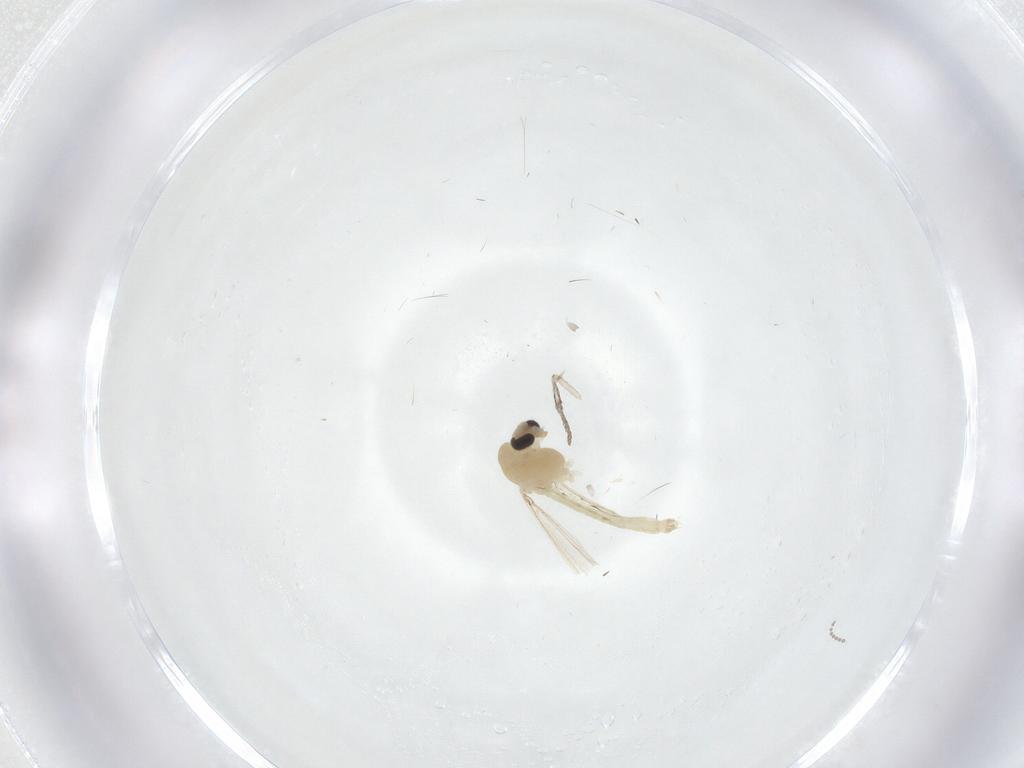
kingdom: Animalia
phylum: Arthropoda
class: Insecta
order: Diptera
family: Psychodidae
